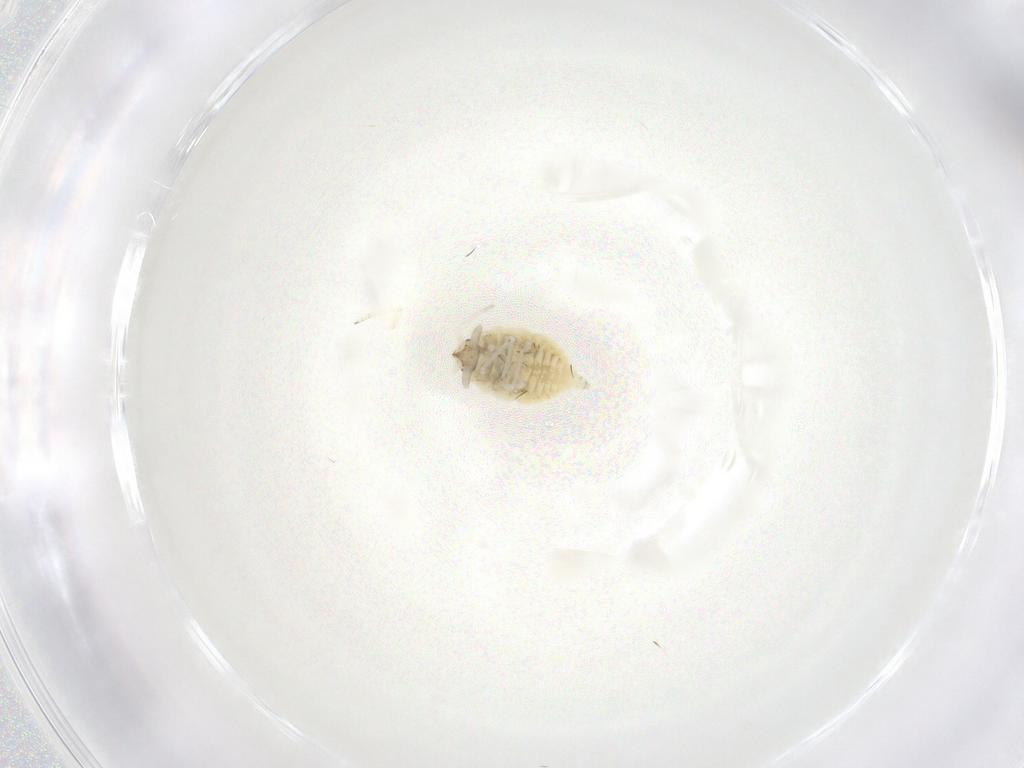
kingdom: Animalia
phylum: Arthropoda
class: Insecta
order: Neuroptera
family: Coniopterygidae
